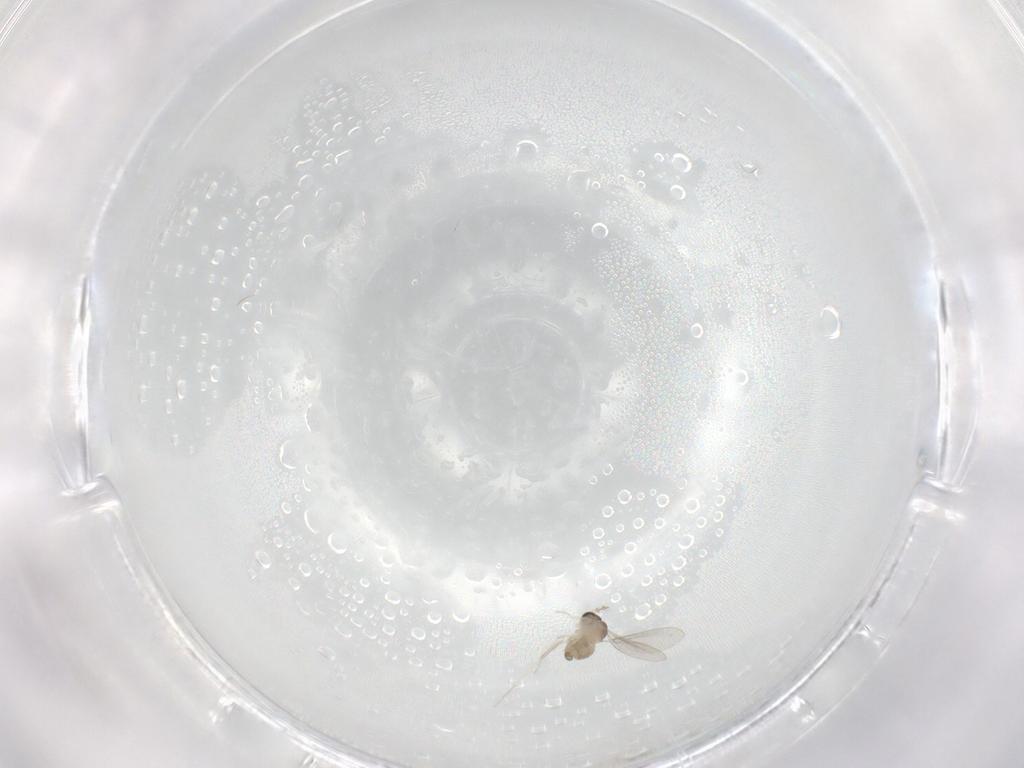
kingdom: Animalia
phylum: Arthropoda
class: Insecta
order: Diptera
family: Cecidomyiidae
